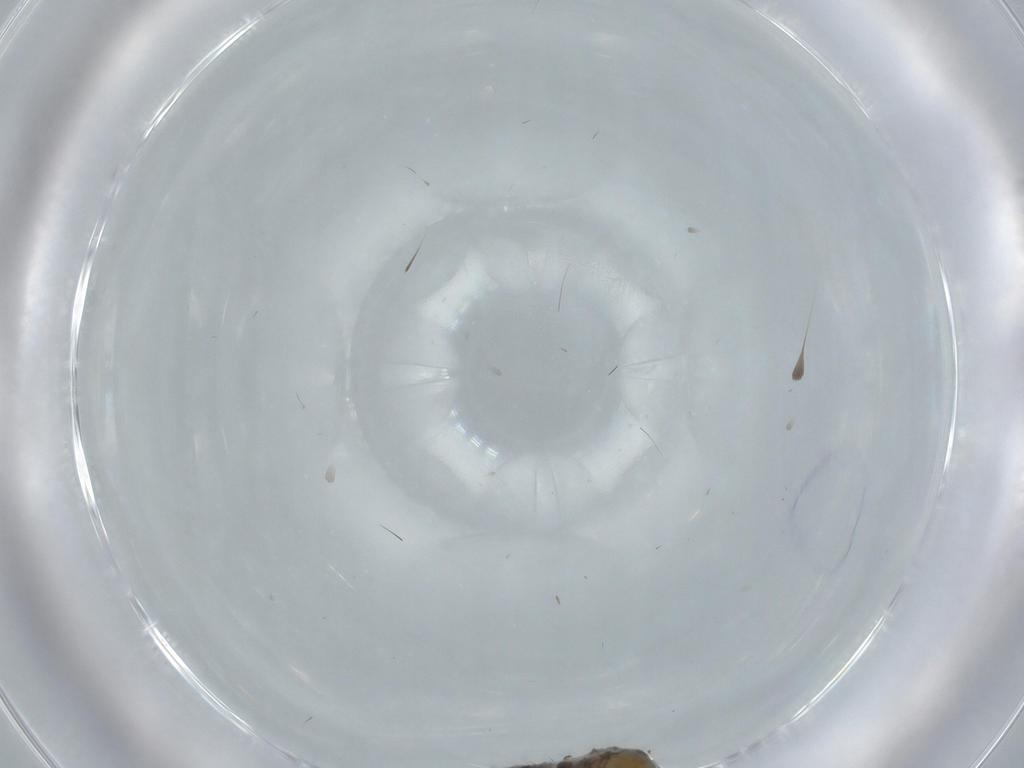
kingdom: Animalia
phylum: Arthropoda
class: Insecta
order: Diptera
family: Sciaridae
